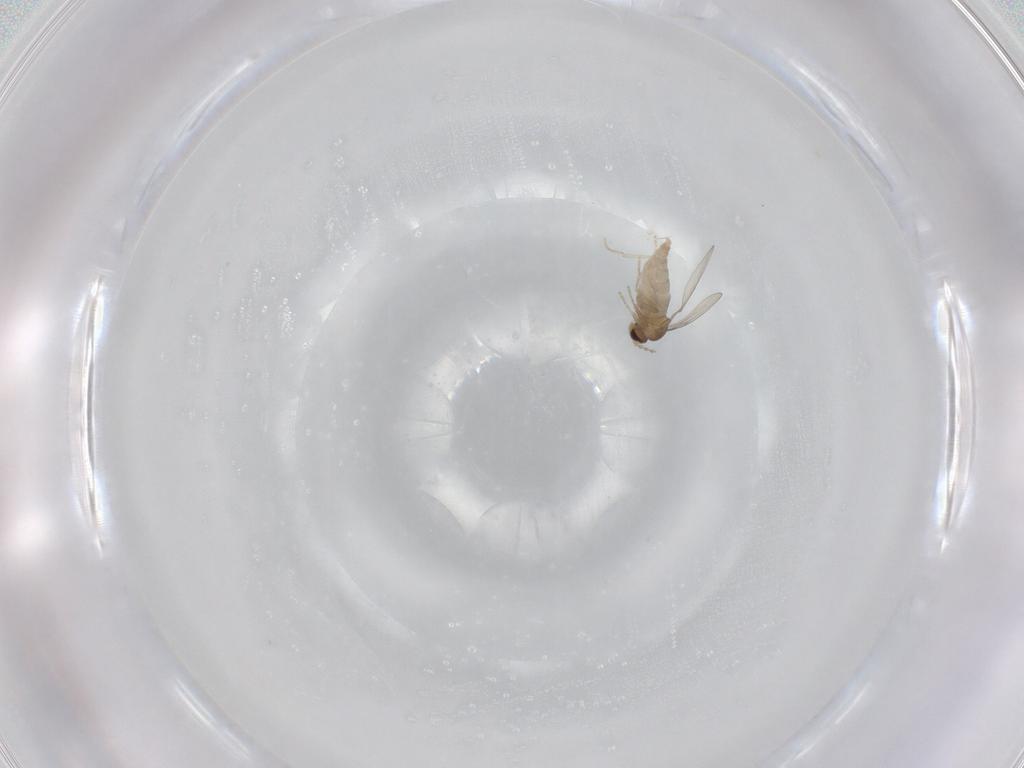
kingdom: Animalia
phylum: Arthropoda
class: Insecta
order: Diptera
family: Cecidomyiidae
